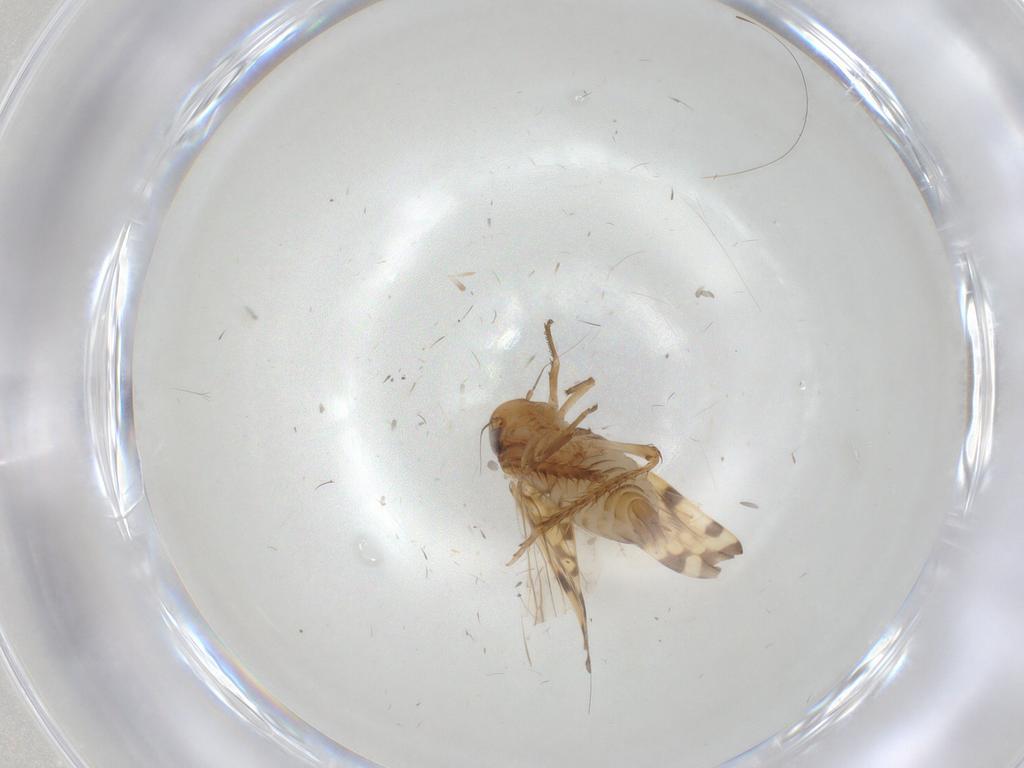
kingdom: Animalia
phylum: Arthropoda
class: Insecta
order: Hemiptera
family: Cicadellidae
